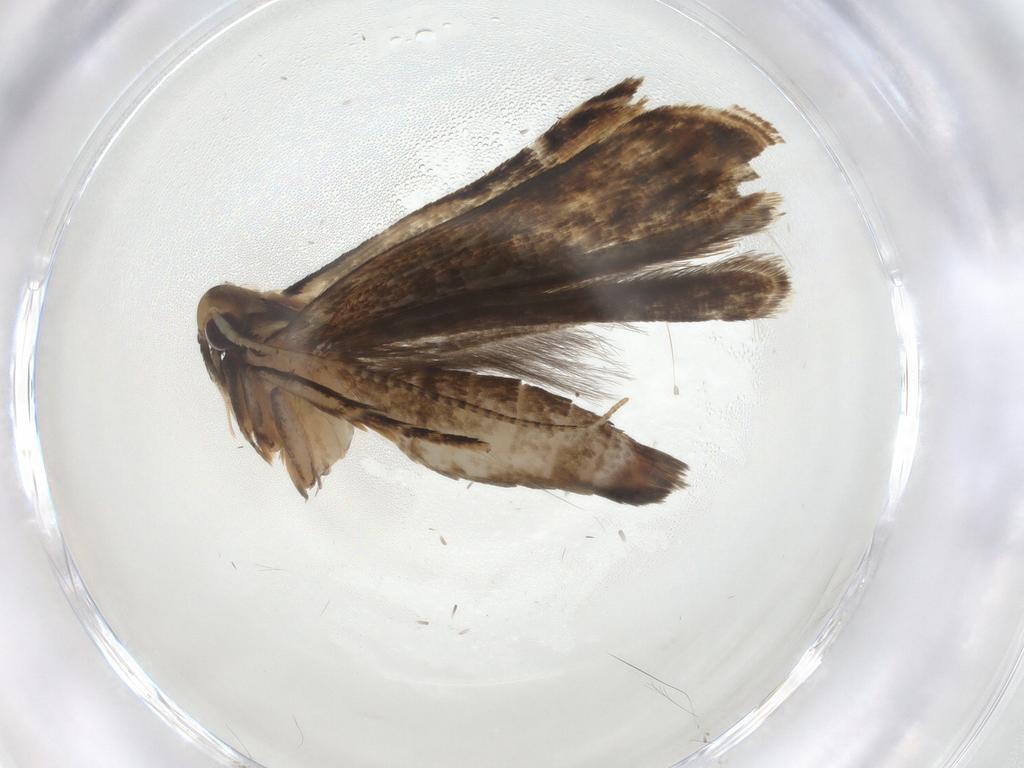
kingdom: Animalia
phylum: Arthropoda
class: Insecta
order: Lepidoptera
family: Gelechiidae
